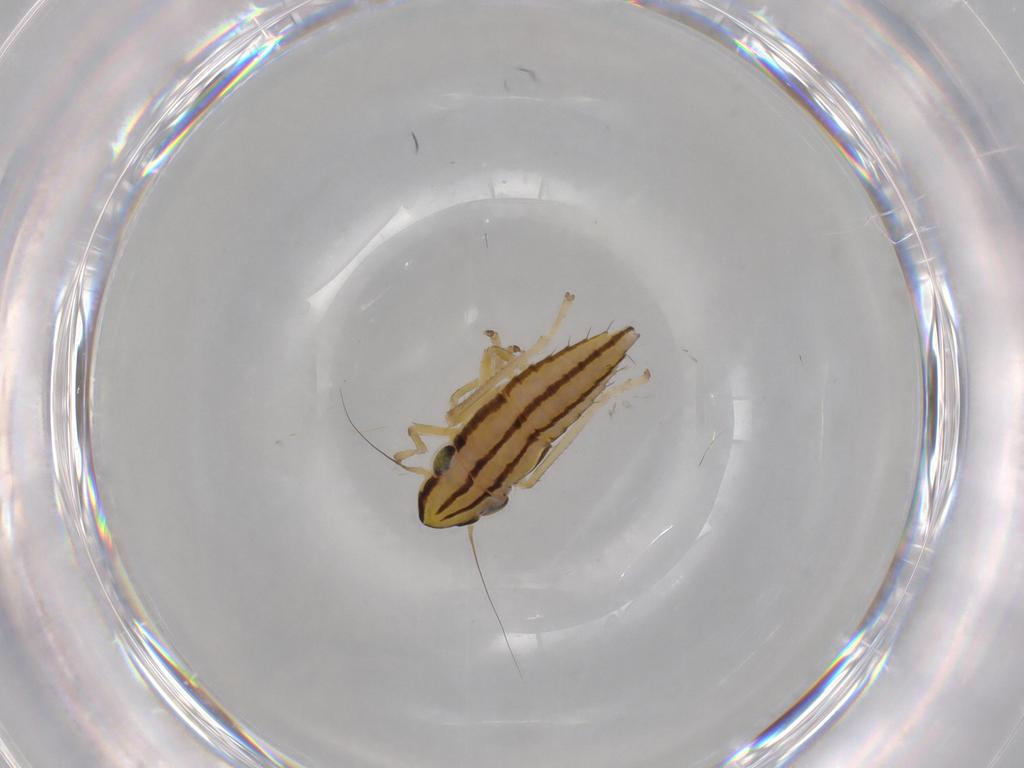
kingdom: Animalia
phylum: Arthropoda
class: Insecta
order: Hemiptera
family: Cicadellidae
